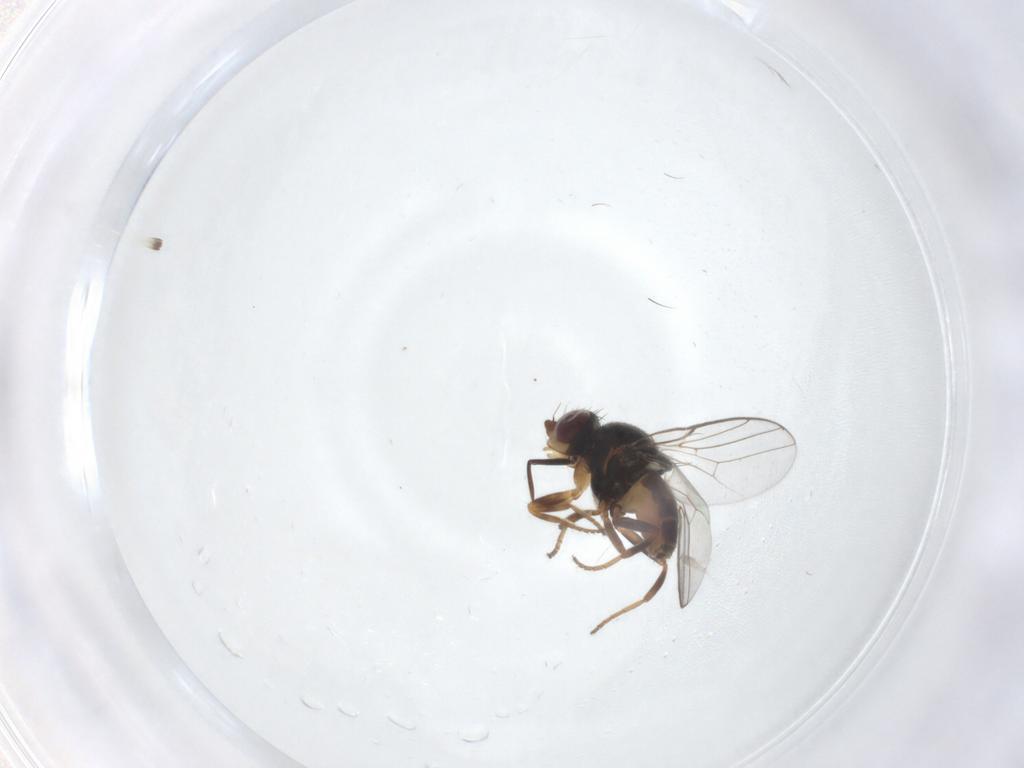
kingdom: Animalia
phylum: Arthropoda
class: Insecta
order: Diptera
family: Chloropidae
